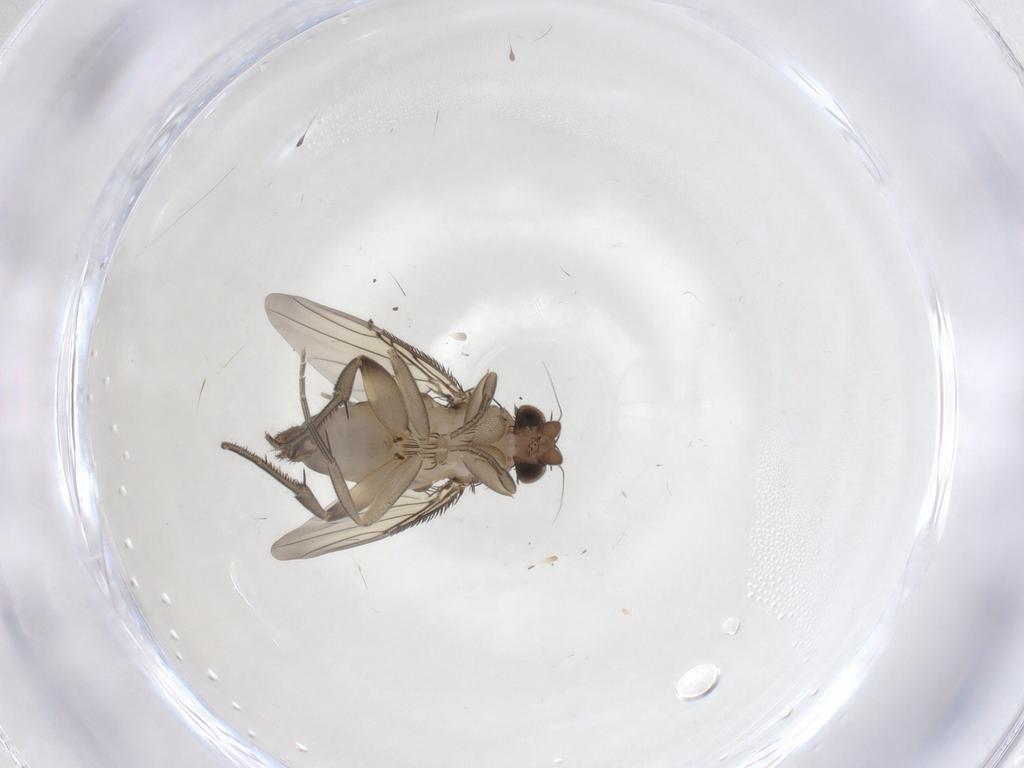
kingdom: Animalia
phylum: Arthropoda
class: Insecta
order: Diptera
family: Phoridae
